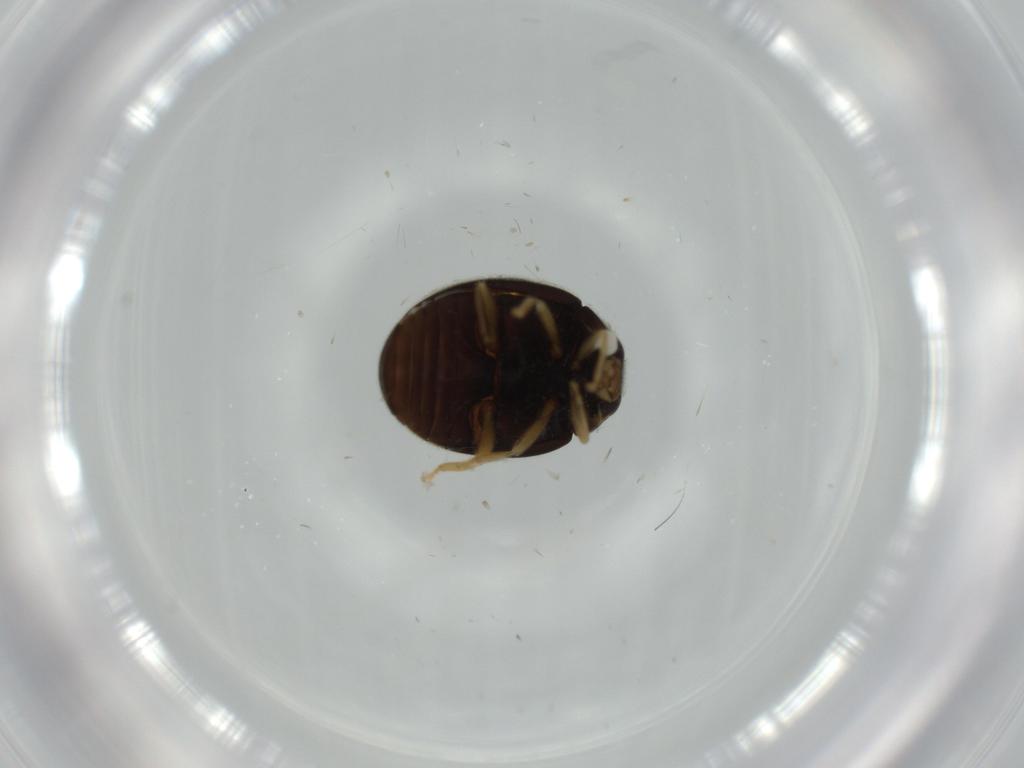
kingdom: Animalia
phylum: Arthropoda
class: Insecta
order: Coleoptera
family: Coccinellidae
